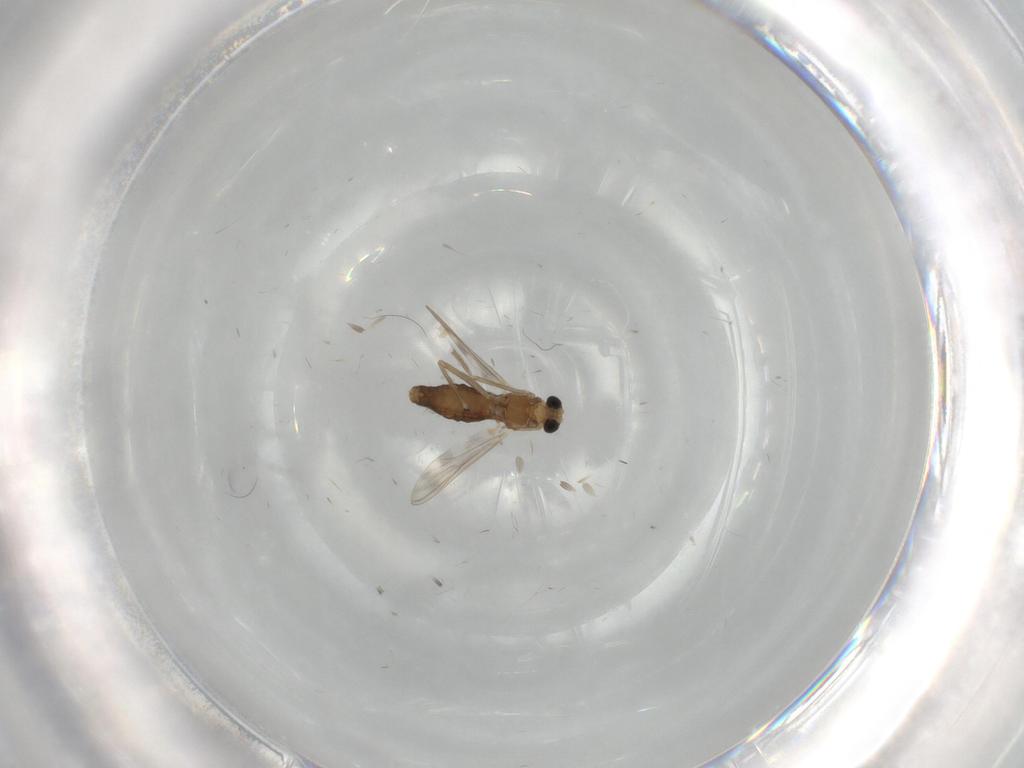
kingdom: Animalia
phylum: Arthropoda
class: Insecta
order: Diptera
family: Chironomidae
